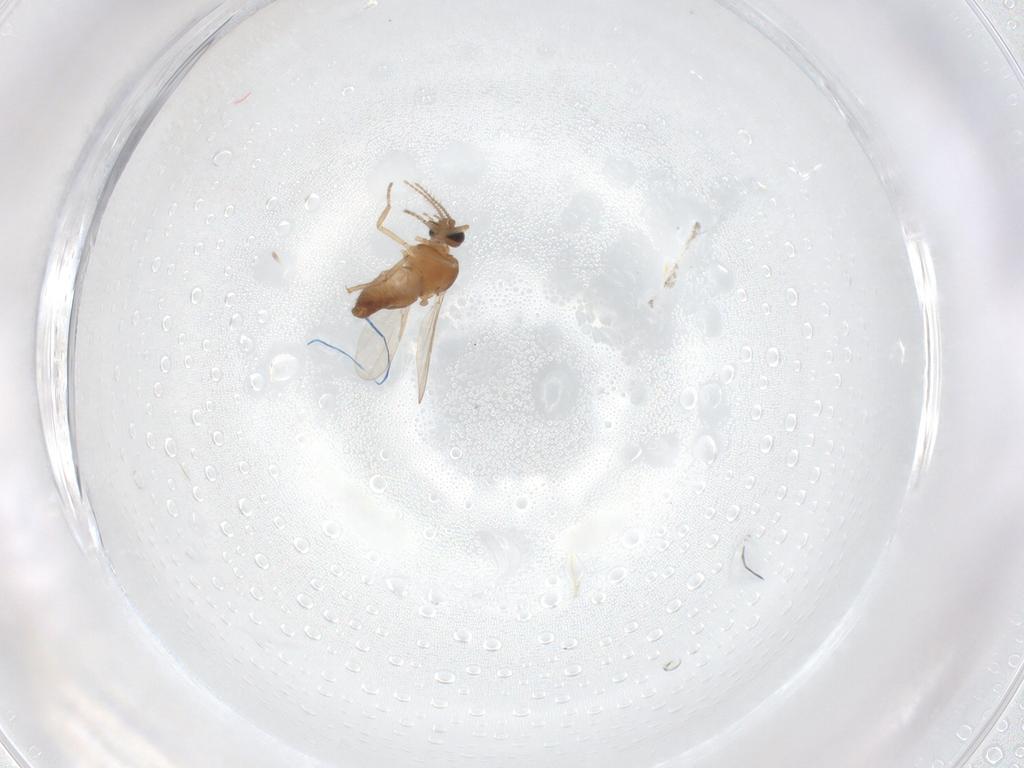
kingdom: Animalia
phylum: Arthropoda
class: Insecta
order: Diptera
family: Ceratopogonidae
